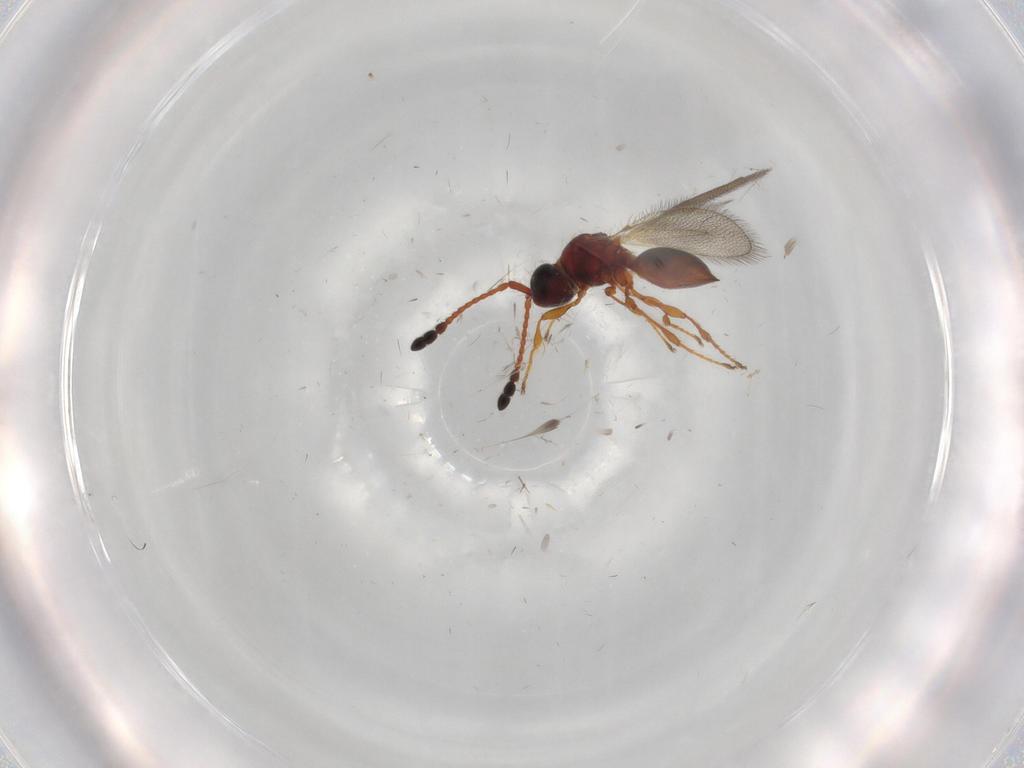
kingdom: Animalia
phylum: Arthropoda
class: Insecta
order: Hymenoptera
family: Diapriidae
